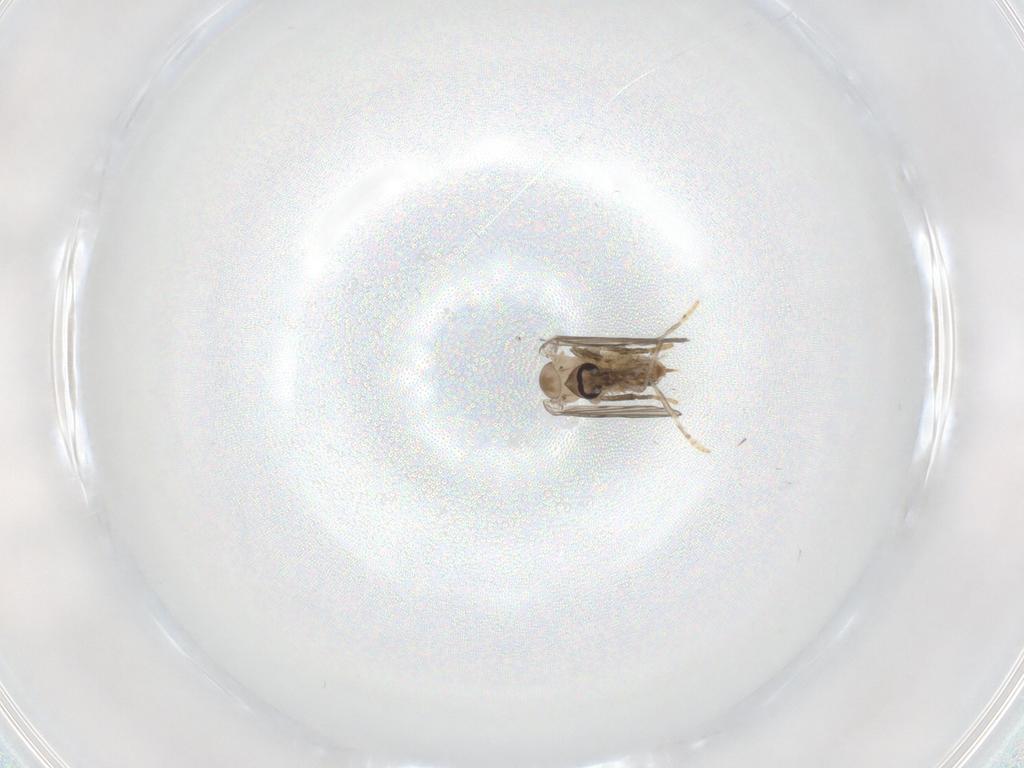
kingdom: Animalia
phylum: Arthropoda
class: Insecta
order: Diptera
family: Psychodidae
